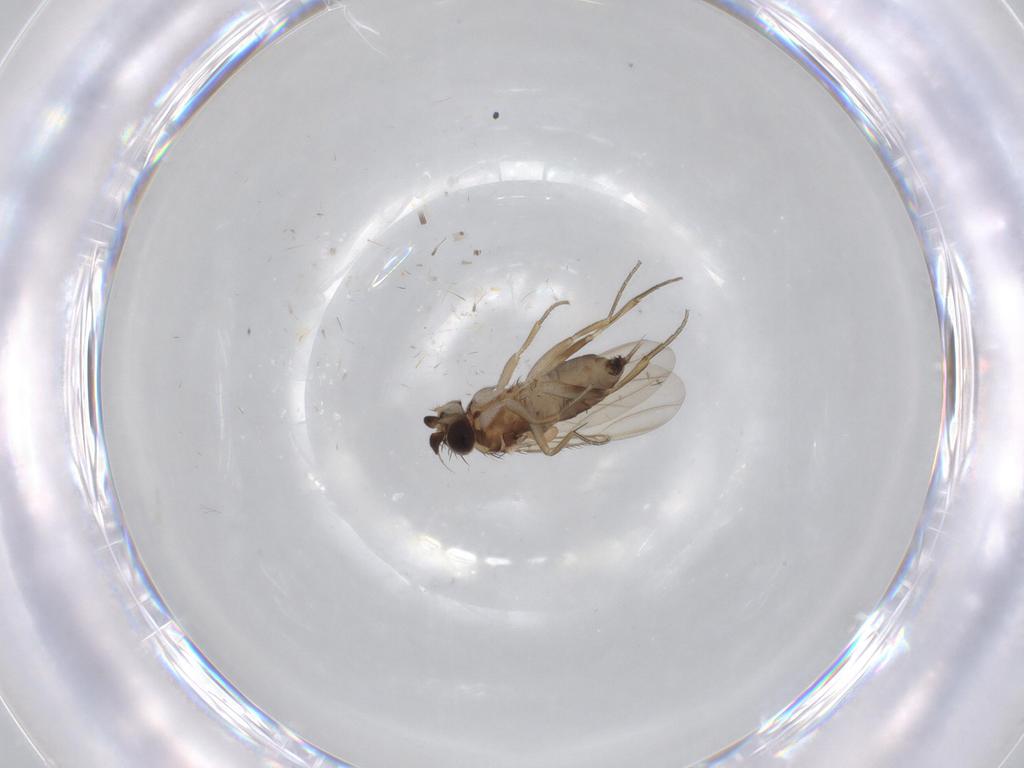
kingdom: Animalia
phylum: Arthropoda
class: Insecta
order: Diptera
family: Phoridae
